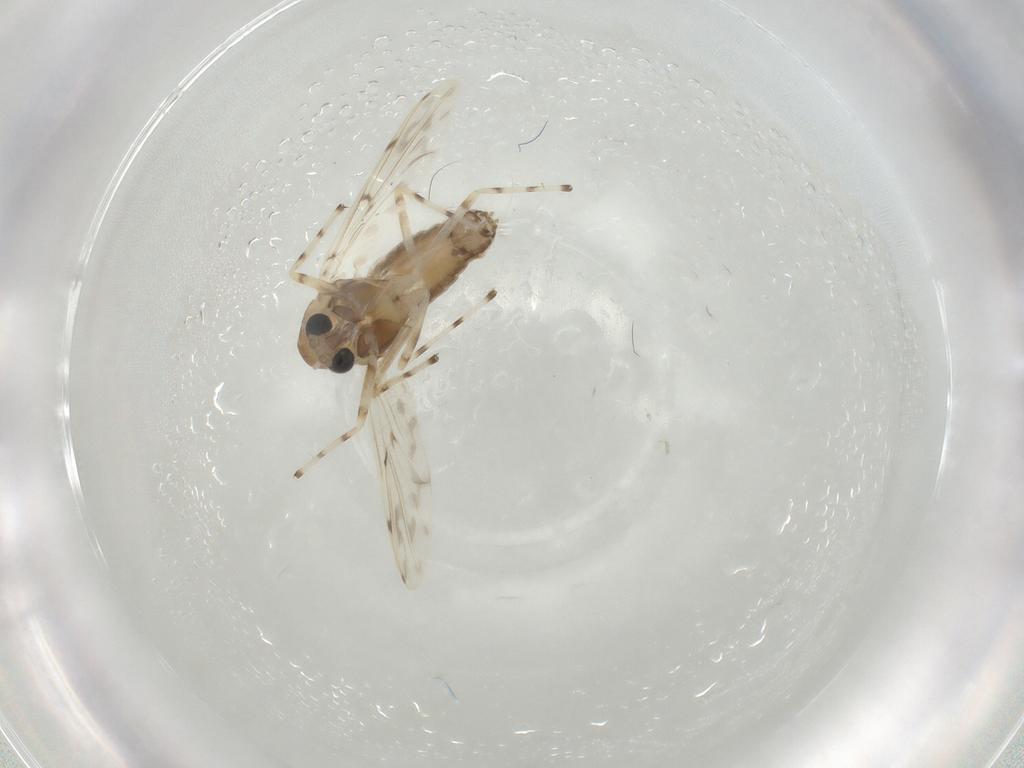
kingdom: Animalia
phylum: Arthropoda
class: Insecta
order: Diptera
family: Chironomidae
